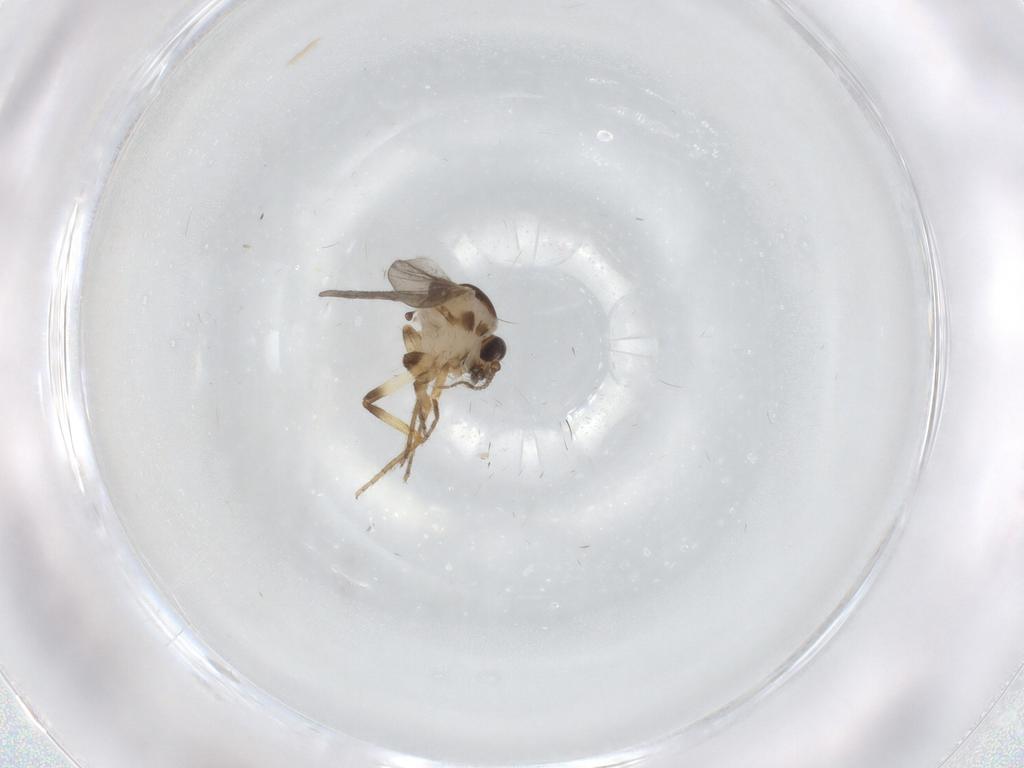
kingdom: Animalia
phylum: Arthropoda
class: Insecta
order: Diptera
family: Ceratopogonidae
